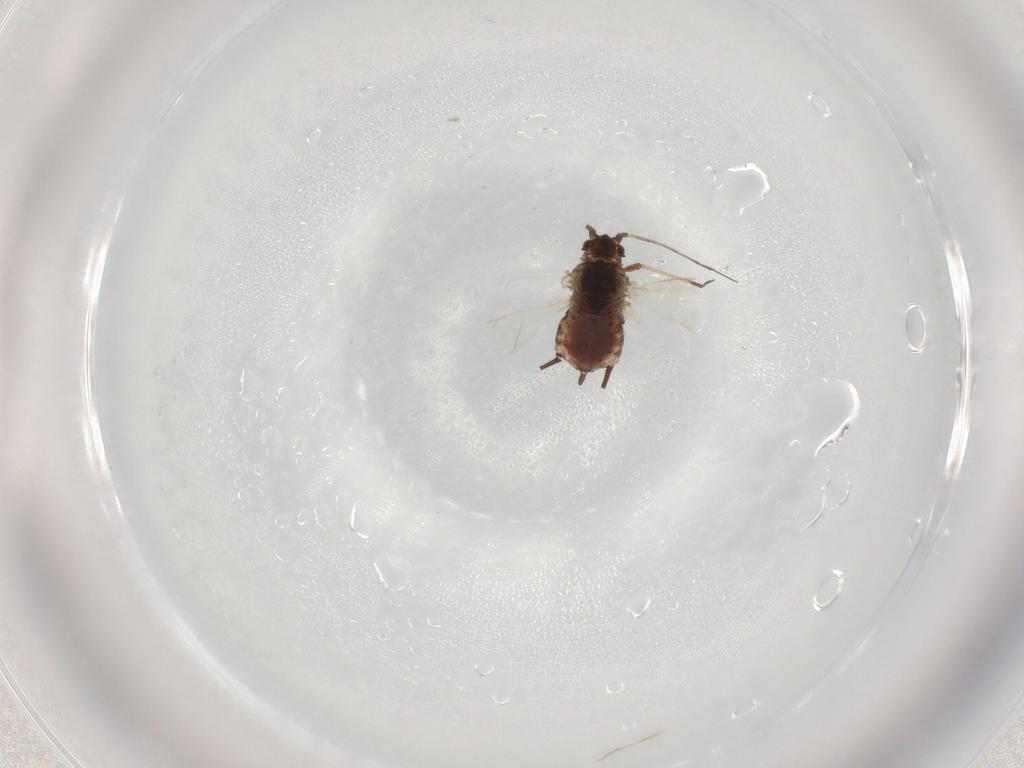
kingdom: Animalia
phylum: Arthropoda
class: Insecta
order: Hemiptera
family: Aphididae
